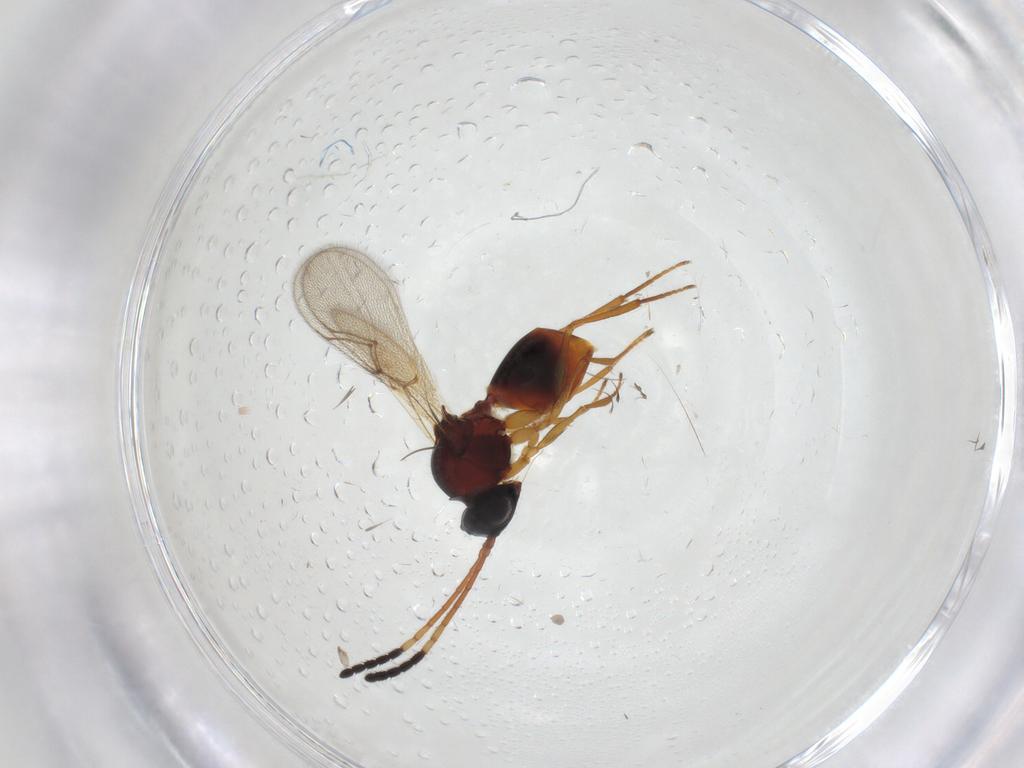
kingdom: Animalia
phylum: Arthropoda
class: Insecta
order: Hymenoptera
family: Figitidae
